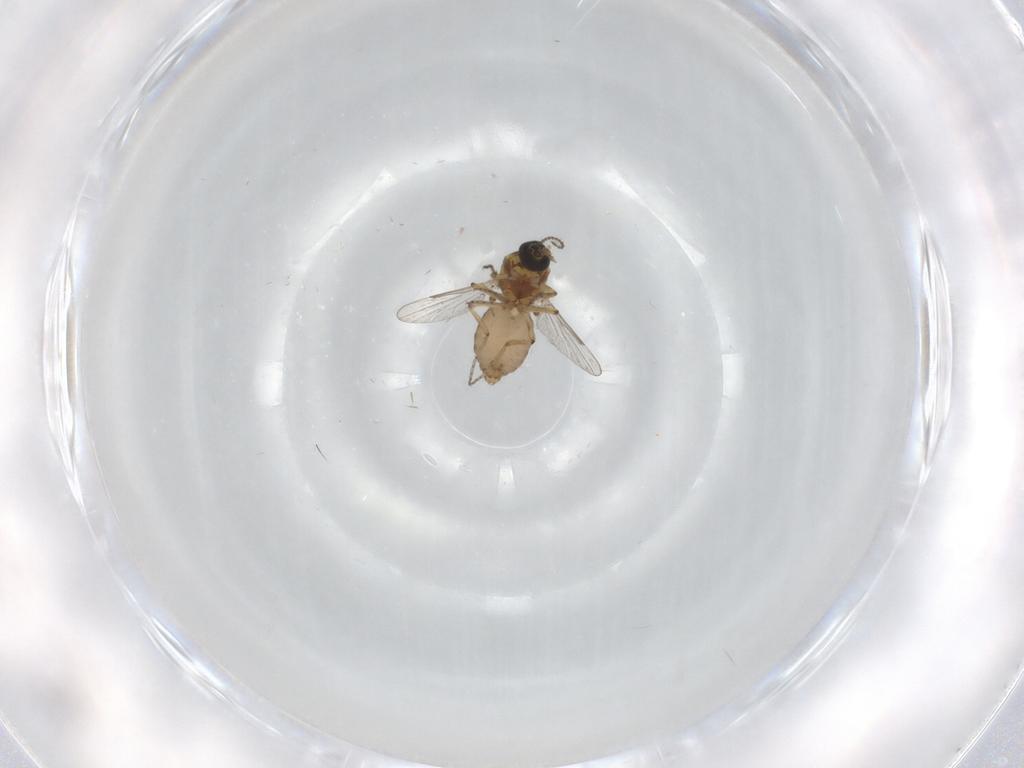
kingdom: Animalia
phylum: Arthropoda
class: Insecta
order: Diptera
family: Ceratopogonidae
